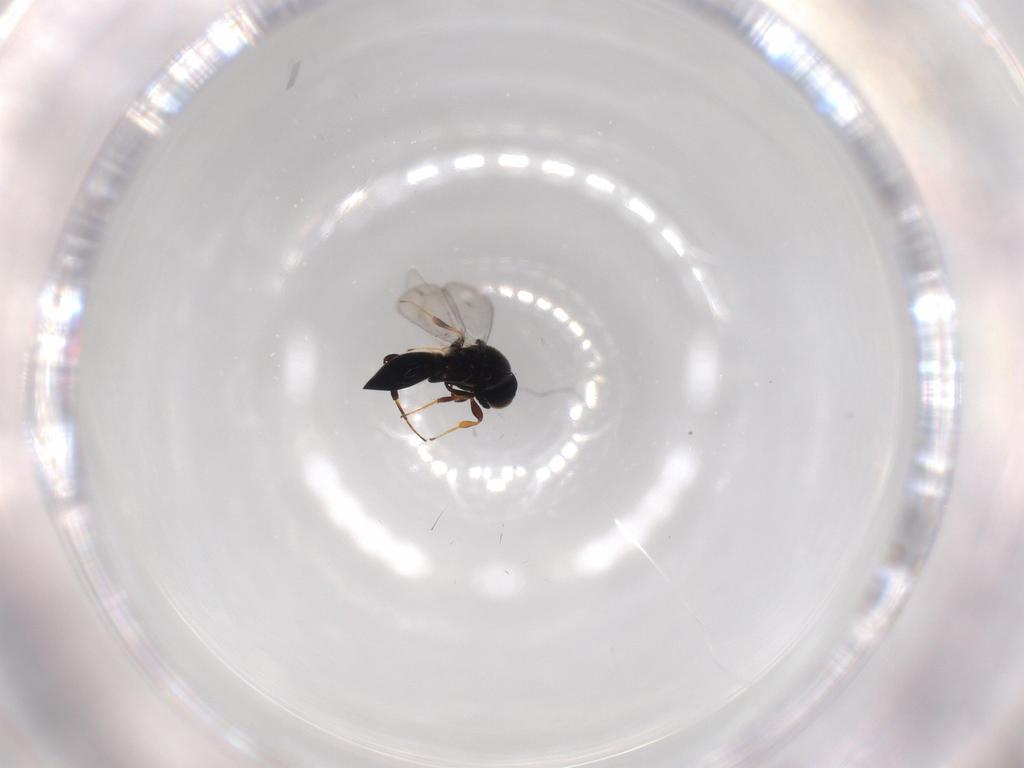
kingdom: Animalia
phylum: Arthropoda
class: Insecta
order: Hymenoptera
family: Platygastridae
